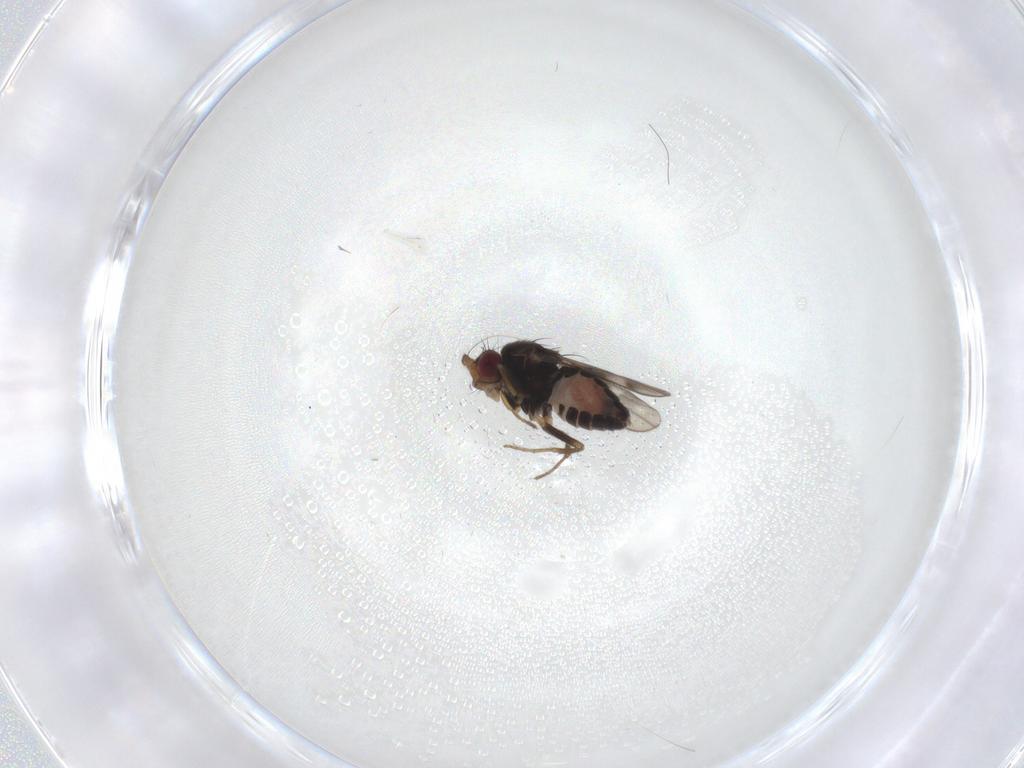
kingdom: Animalia
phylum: Arthropoda
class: Insecta
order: Diptera
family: Sphaeroceridae
